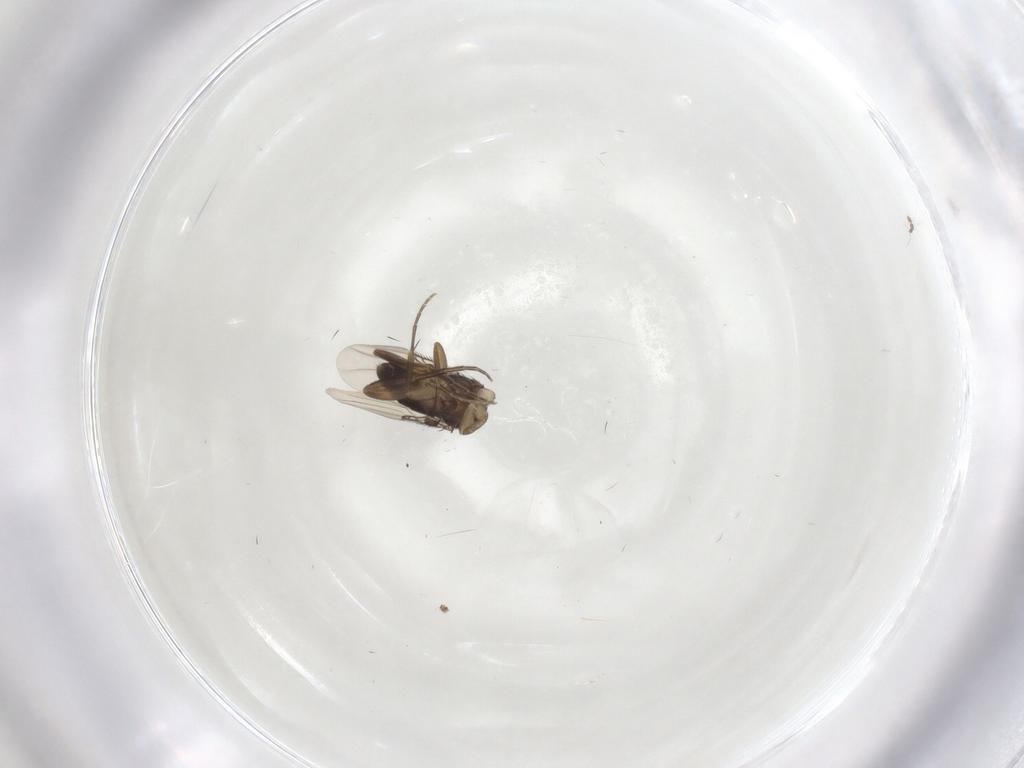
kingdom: Animalia
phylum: Arthropoda
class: Insecta
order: Diptera
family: Phoridae
